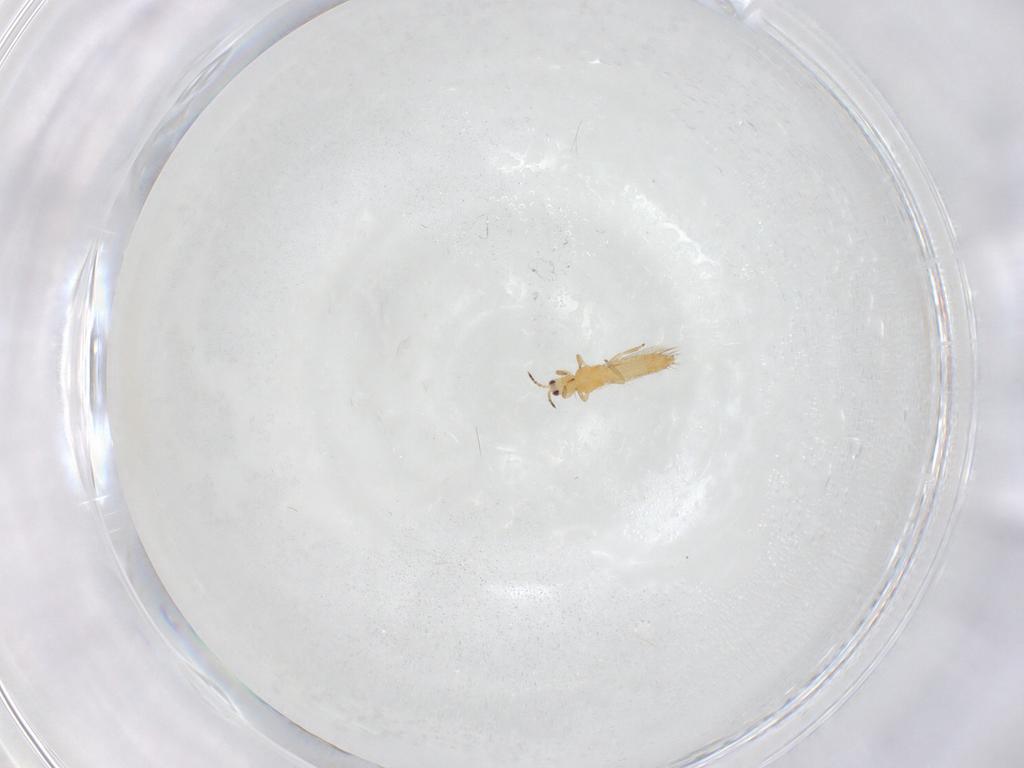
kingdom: Animalia
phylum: Arthropoda
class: Insecta
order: Thysanoptera
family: Thripidae
